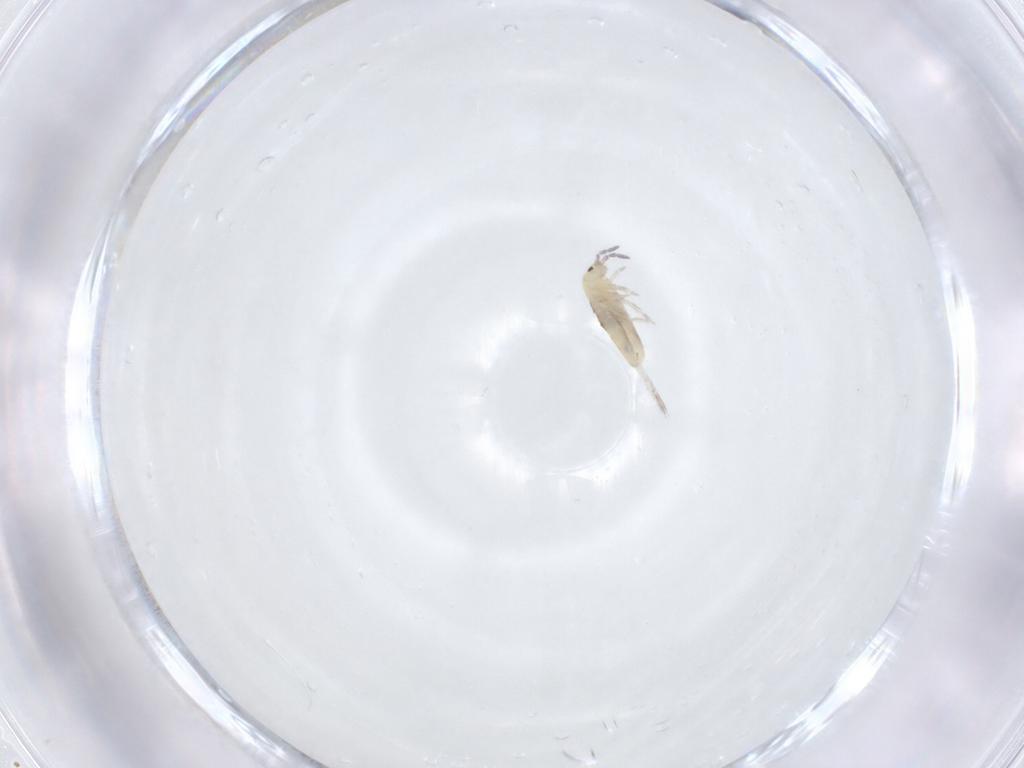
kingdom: Animalia
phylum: Arthropoda
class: Collembola
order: Entomobryomorpha
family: Entomobryidae
